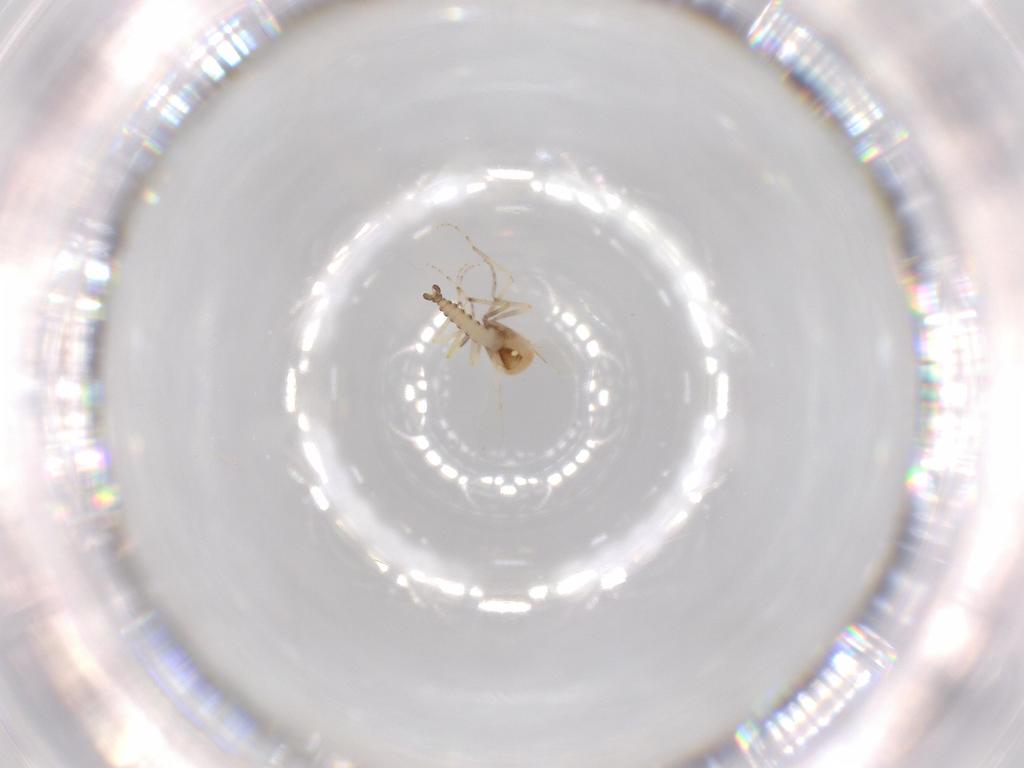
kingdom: Animalia
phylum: Arthropoda
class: Insecta
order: Diptera
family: Ceratopogonidae
